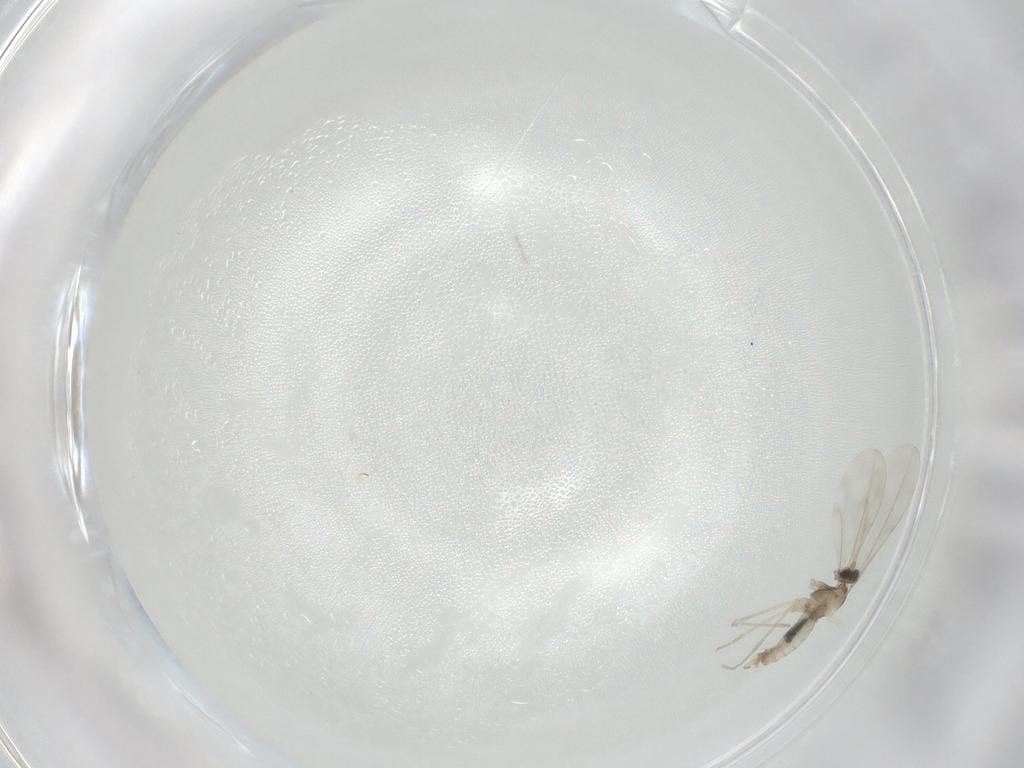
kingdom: Animalia
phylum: Arthropoda
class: Insecta
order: Diptera
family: Cecidomyiidae
